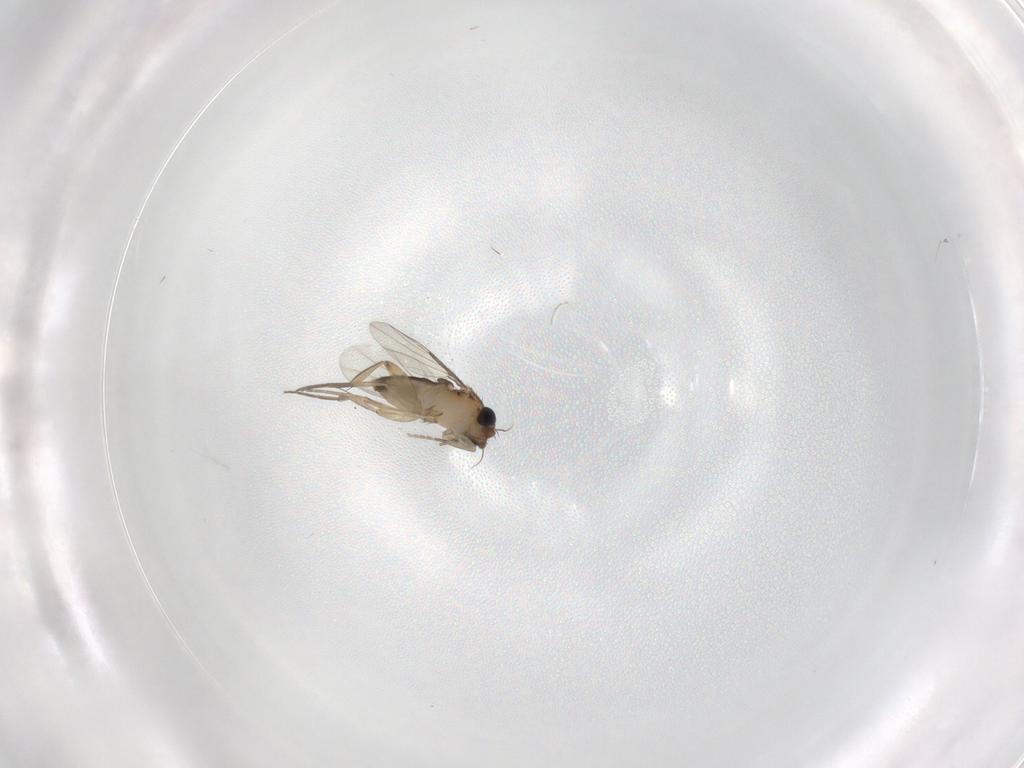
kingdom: Animalia
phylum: Arthropoda
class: Insecta
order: Diptera
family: Phoridae
